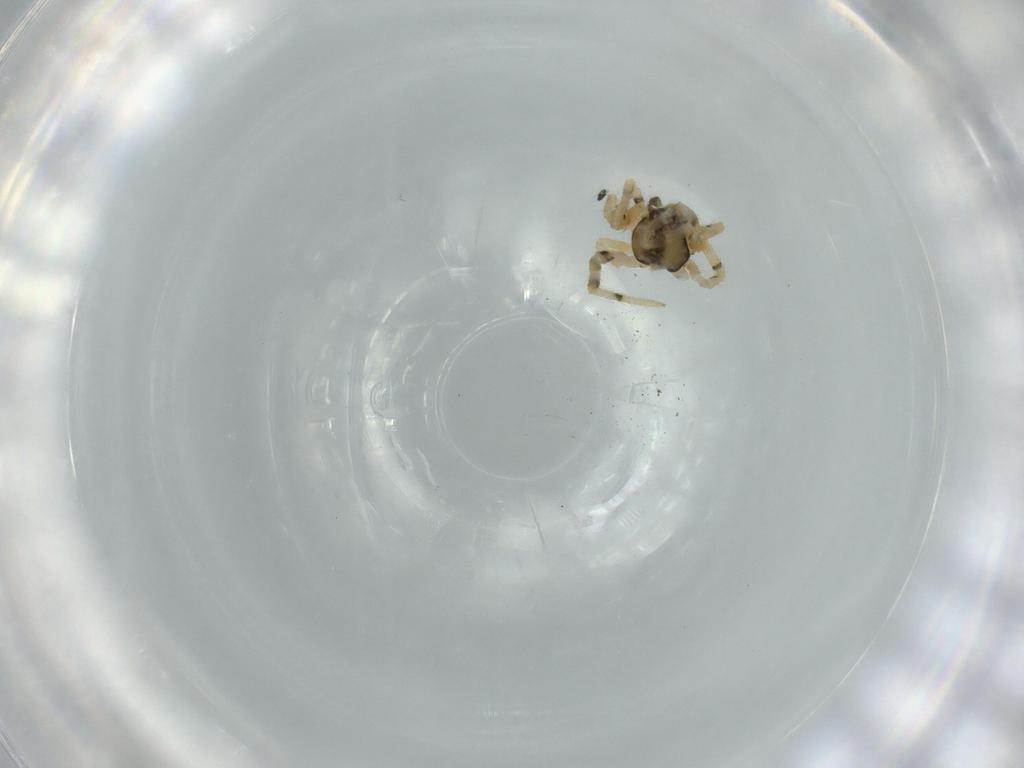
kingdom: Animalia
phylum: Arthropoda
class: Arachnida
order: Araneae
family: Theridiidae
